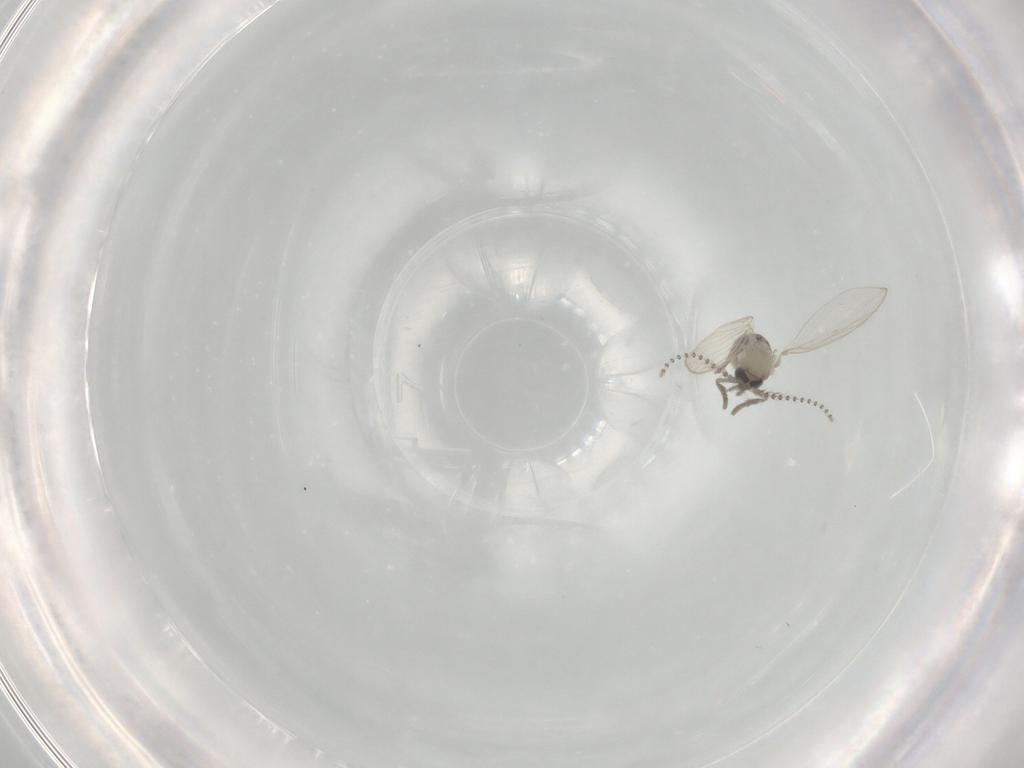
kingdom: Animalia
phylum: Arthropoda
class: Insecta
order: Diptera
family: Psychodidae
